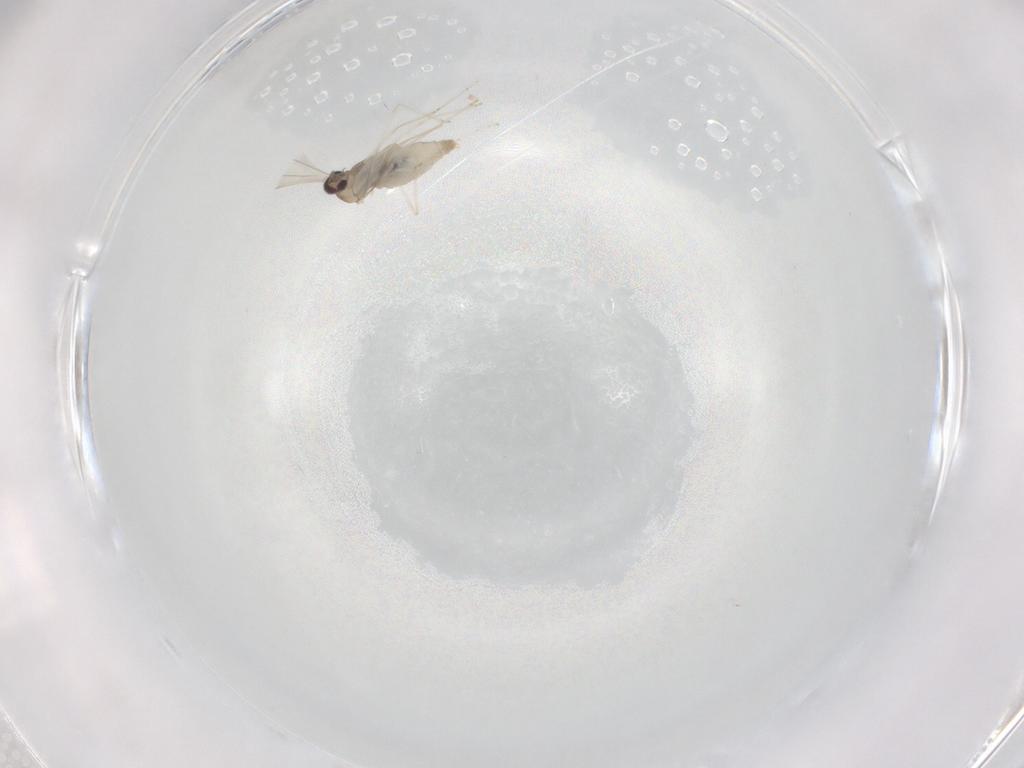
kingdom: Animalia
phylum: Arthropoda
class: Insecta
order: Diptera
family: Cecidomyiidae
